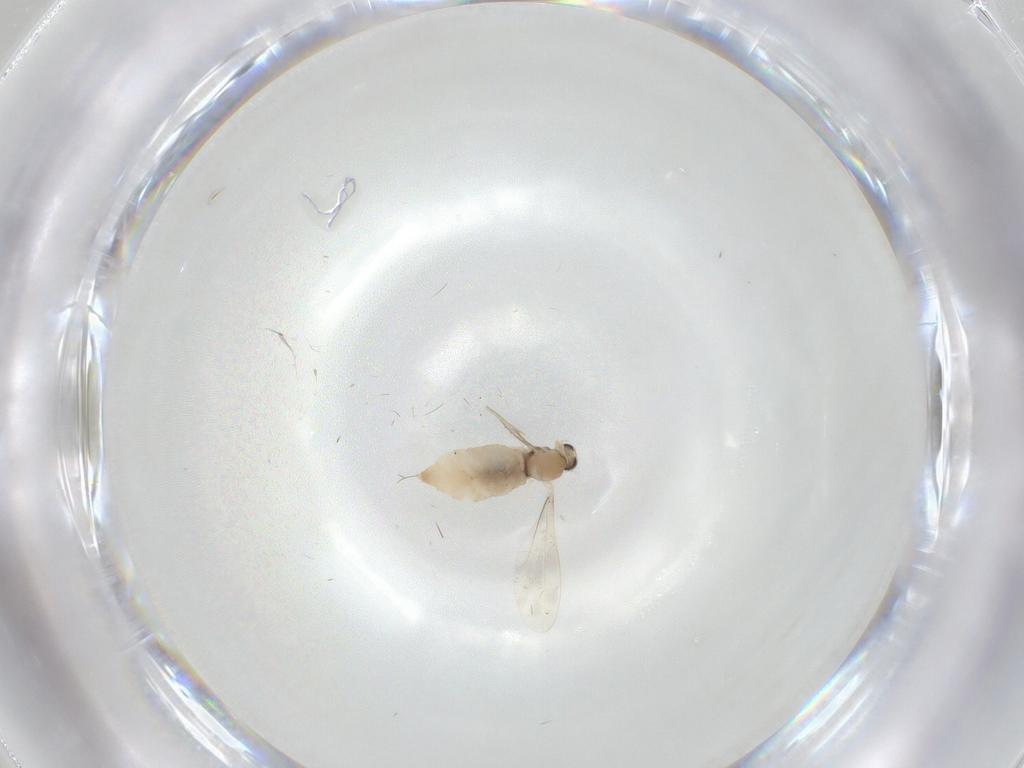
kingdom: Animalia
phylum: Arthropoda
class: Insecta
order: Diptera
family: Cecidomyiidae
